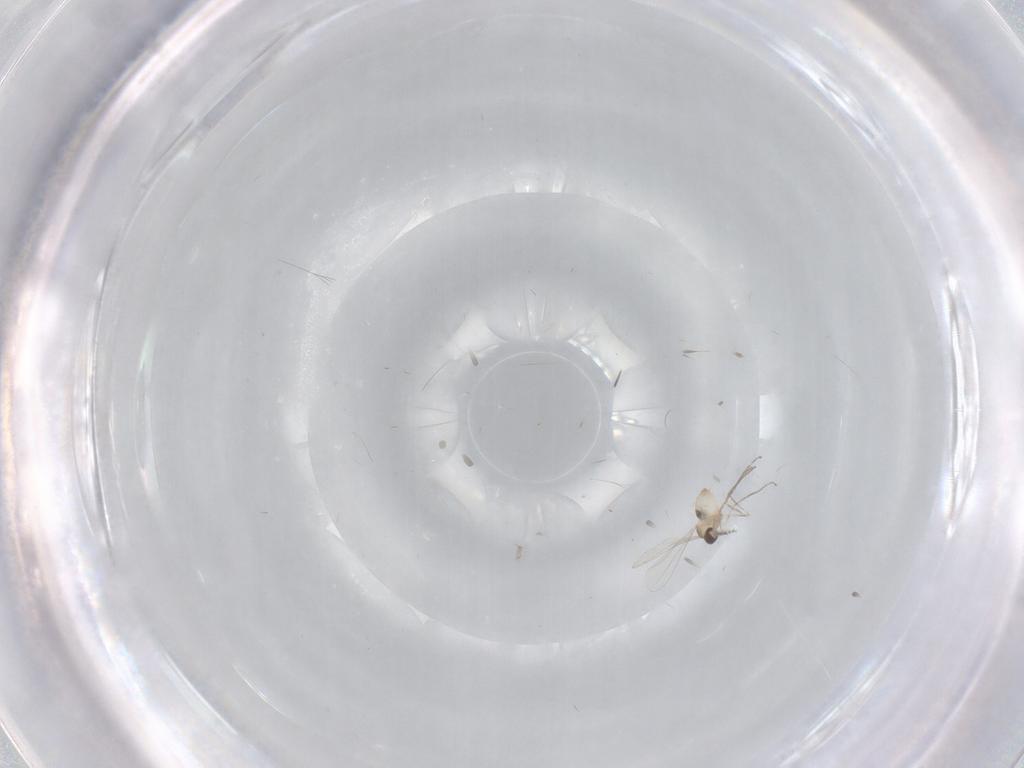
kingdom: Animalia
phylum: Arthropoda
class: Insecta
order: Diptera
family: Cecidomyiidae
